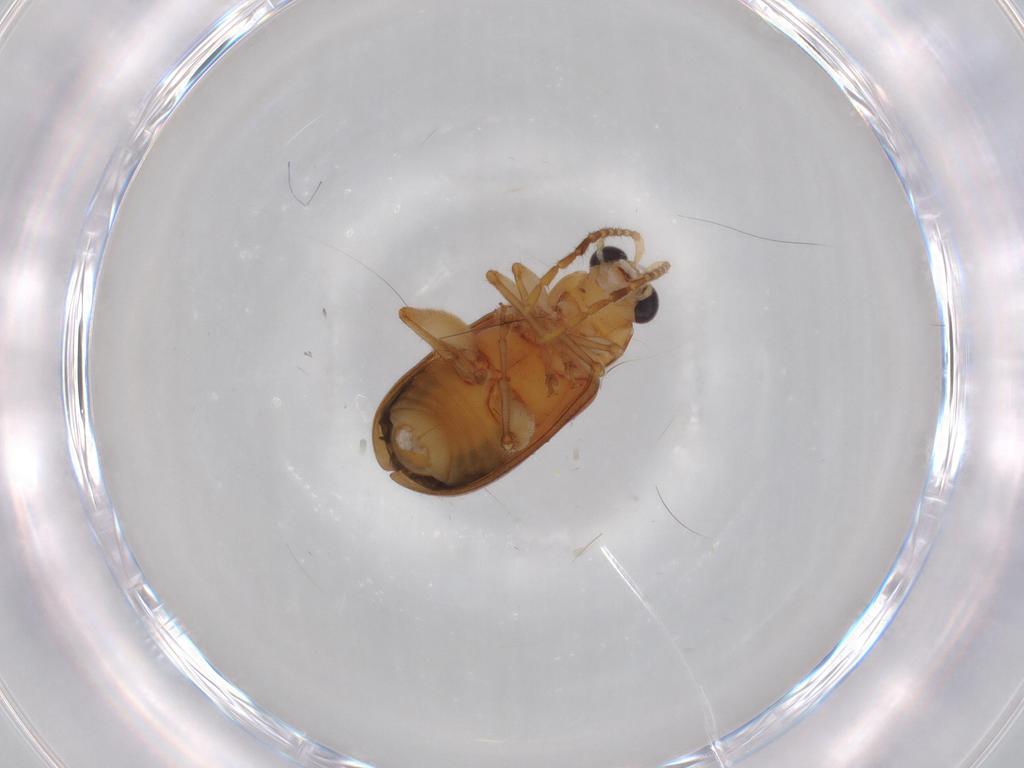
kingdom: Animalia
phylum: Arthropoda
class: Insecta
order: Coleoptera
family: Chrysomelidae
